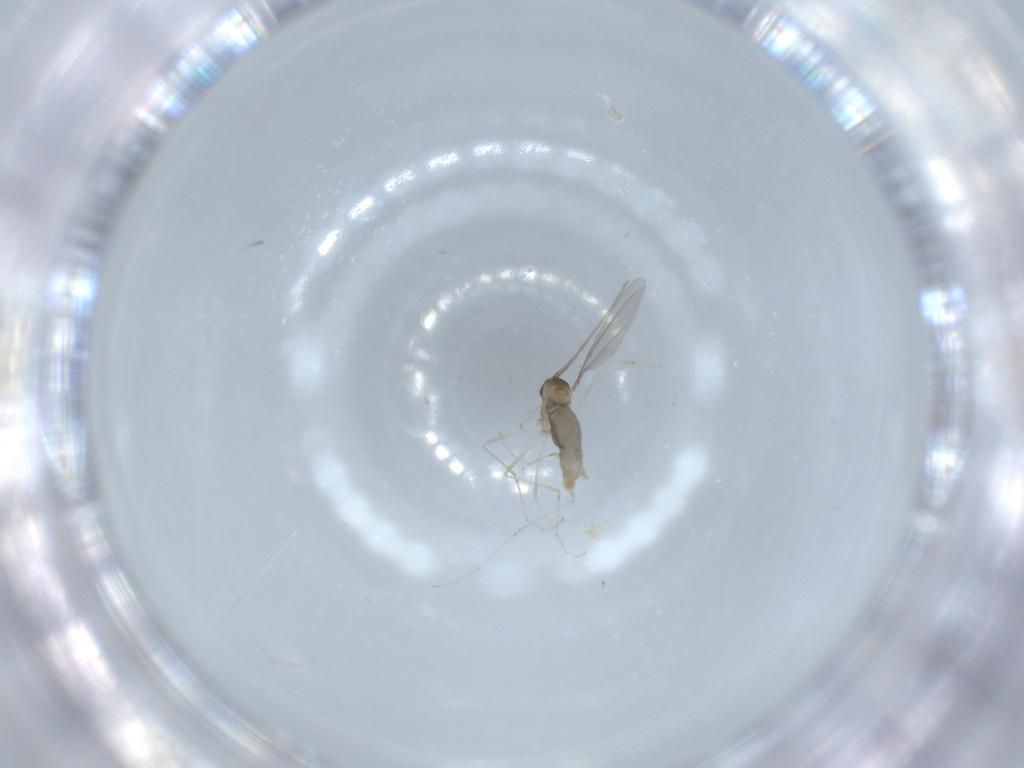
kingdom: Animalia
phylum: Arthropoda
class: Insecta
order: Diptera
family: Cecidomyiidae
